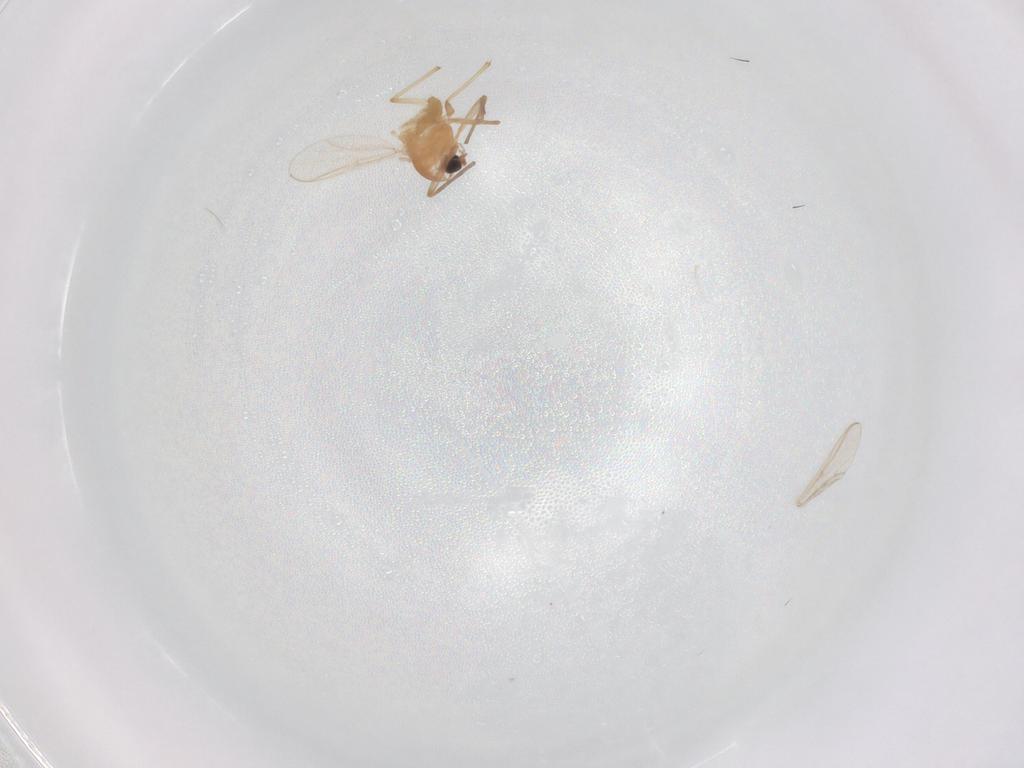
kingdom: Animalia
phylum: Arthropoda
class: Insecta
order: Diptera
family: Chironomidae
